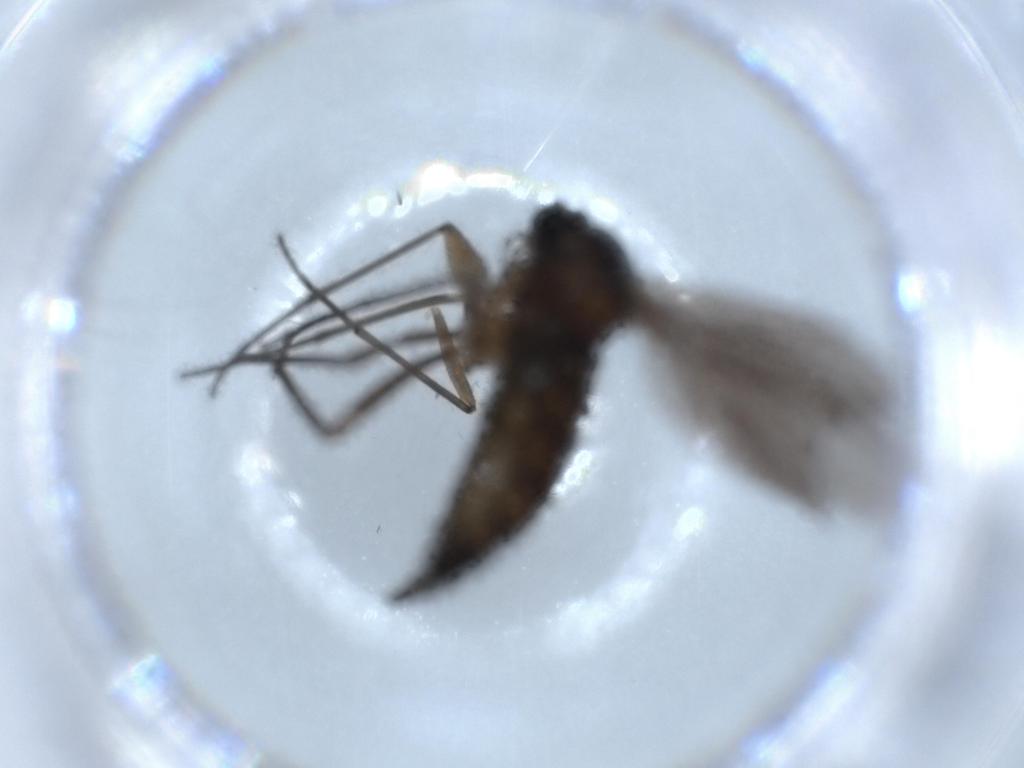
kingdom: Animalia
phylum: Arthropoda
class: Insecta
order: Diptera
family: Sciaridae
